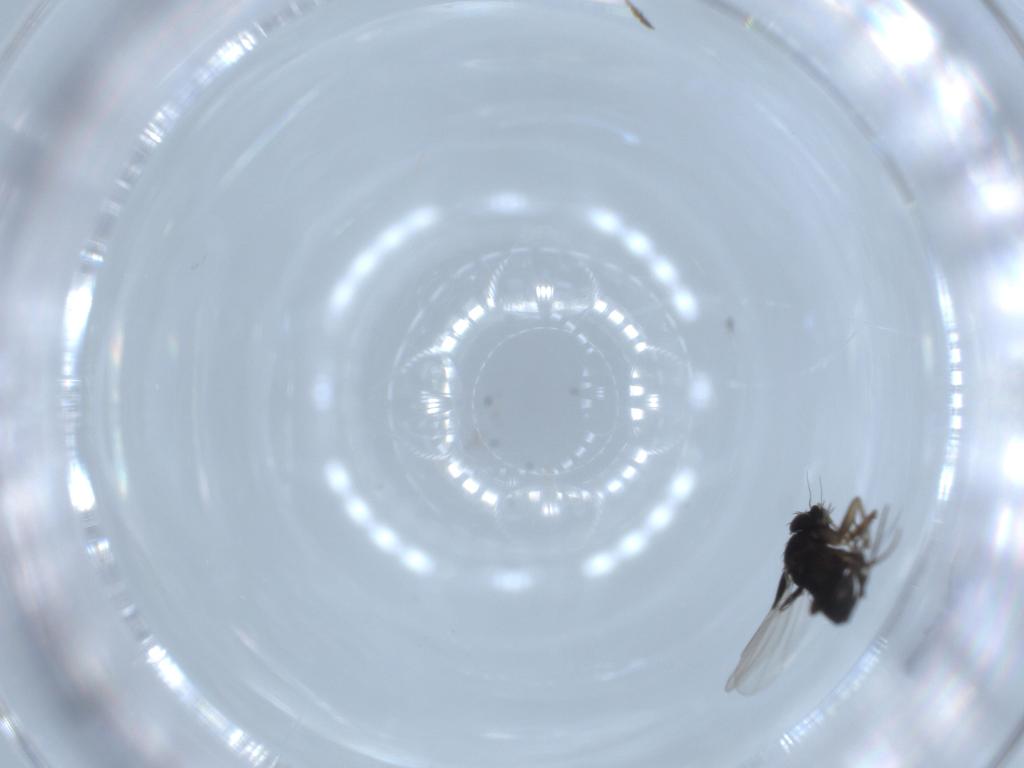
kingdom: Animalia
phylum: Arthropoda
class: Insecta
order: Diptera
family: Phoridae
